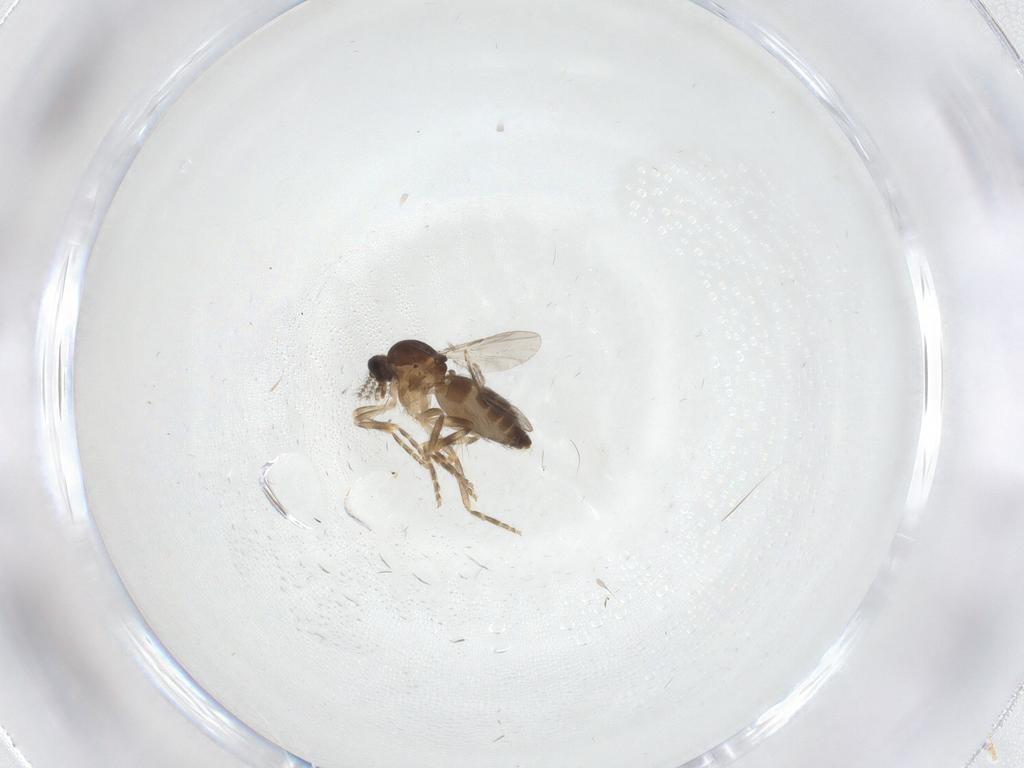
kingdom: Animalia
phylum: Arthropoda
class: Insecta
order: Diptera
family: Ceratopogonidae
